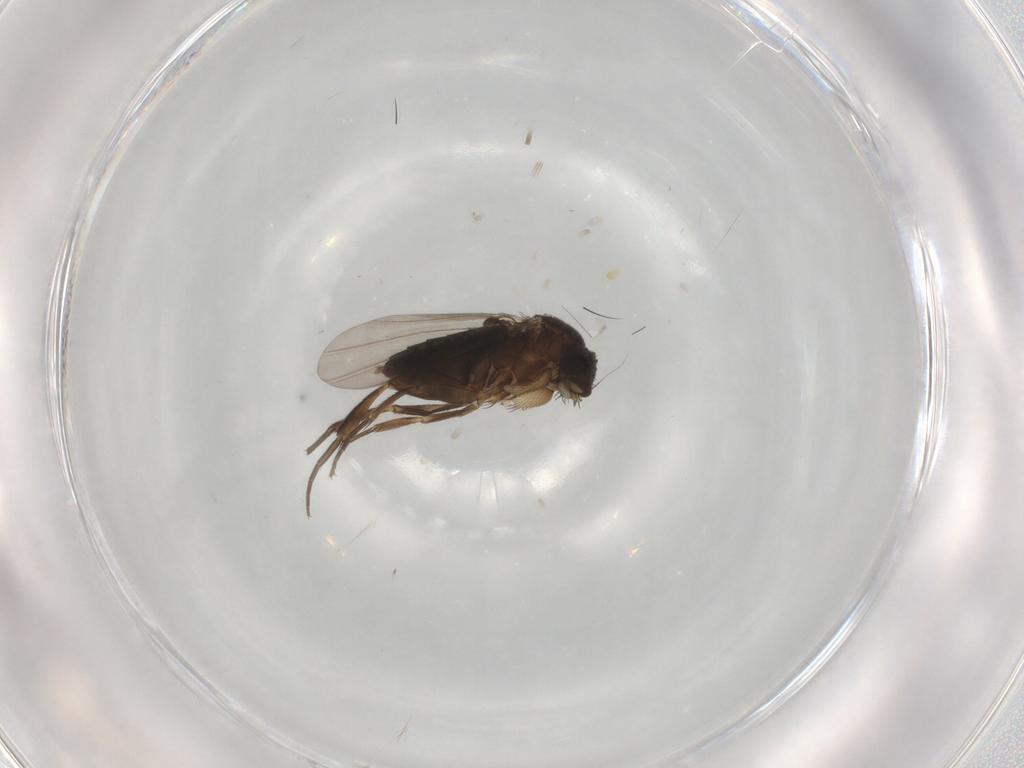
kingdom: Animalia
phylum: Arthropoda
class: Insecta
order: Diptera
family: Phoridae
